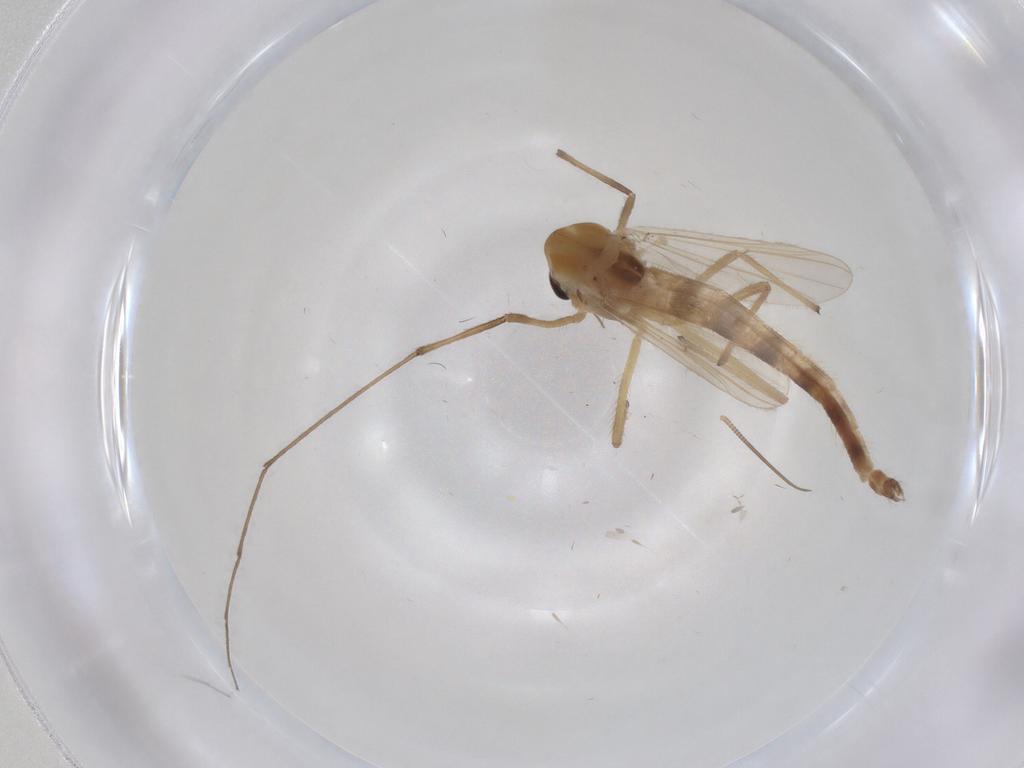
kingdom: Animalia
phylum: Arthropoda
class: Insecta
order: Diptera
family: Chironomidae
